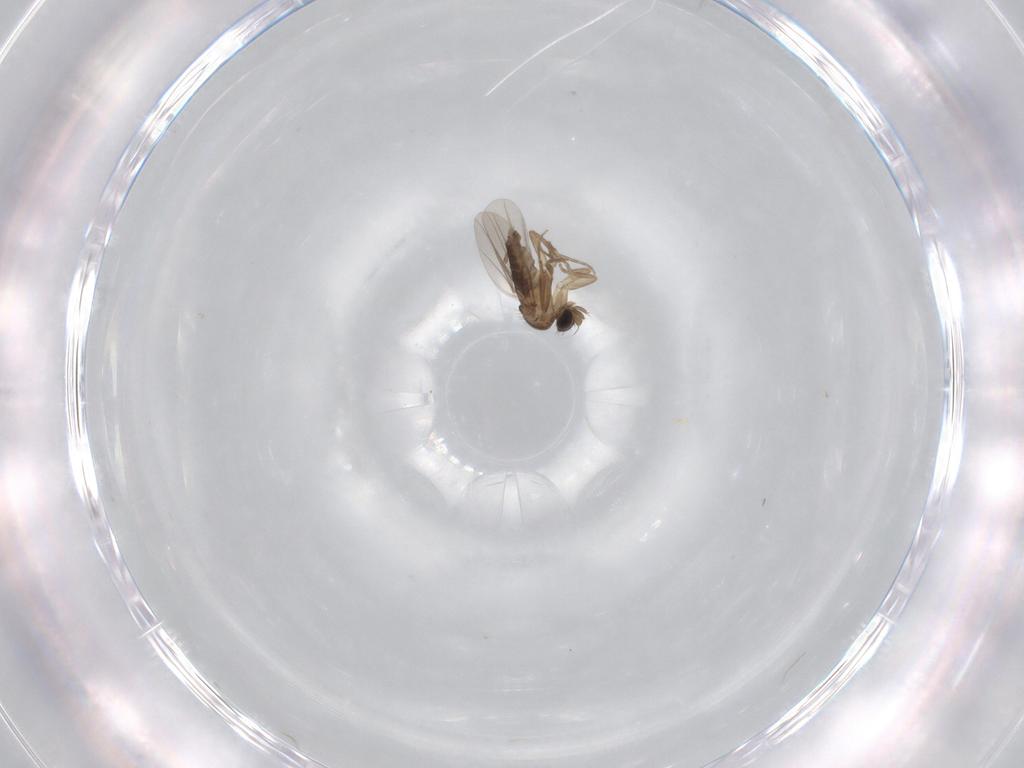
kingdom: Animalia
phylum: Arthropoda
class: Insecta
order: Diptera
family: Phoridae
